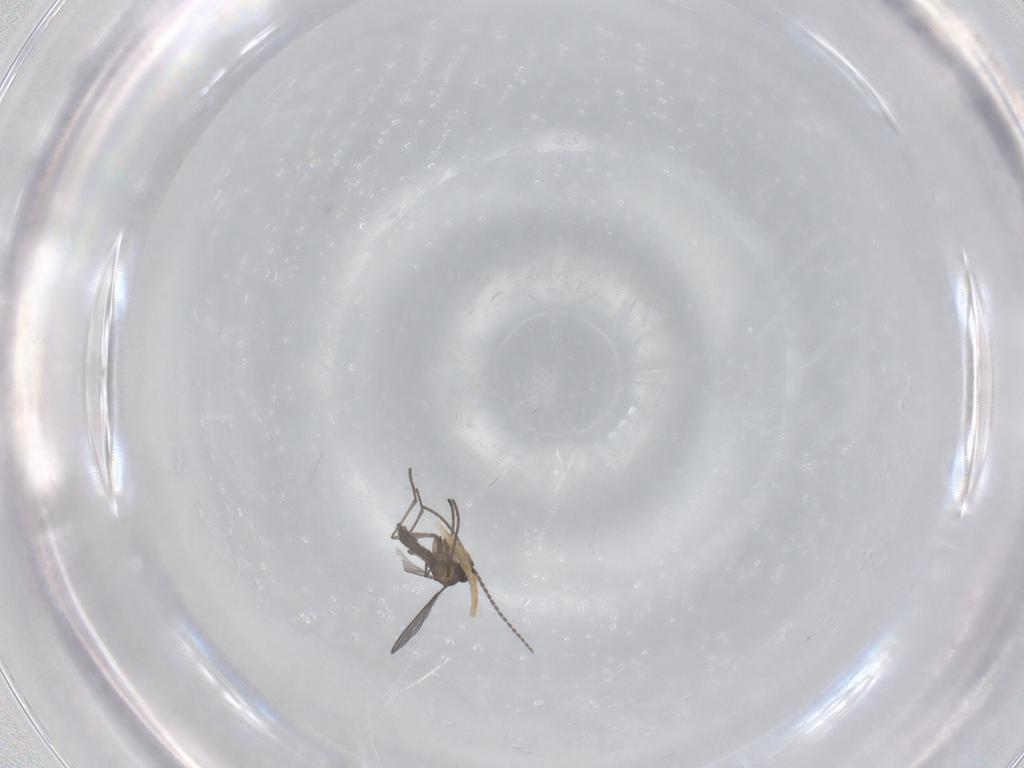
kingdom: Animalia
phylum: Arthropoda
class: Insecta
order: Diptera
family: Sciaridae
